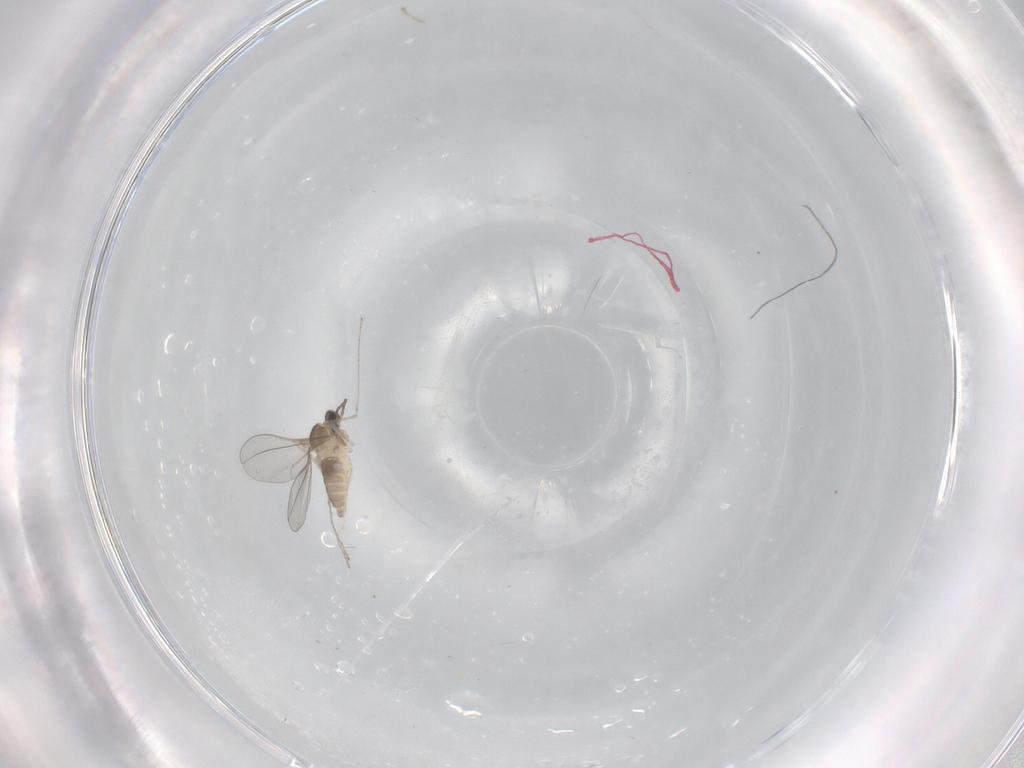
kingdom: Animalia
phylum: Arthropoda
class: Insecta
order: Diptera
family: Cecidomyiidae
